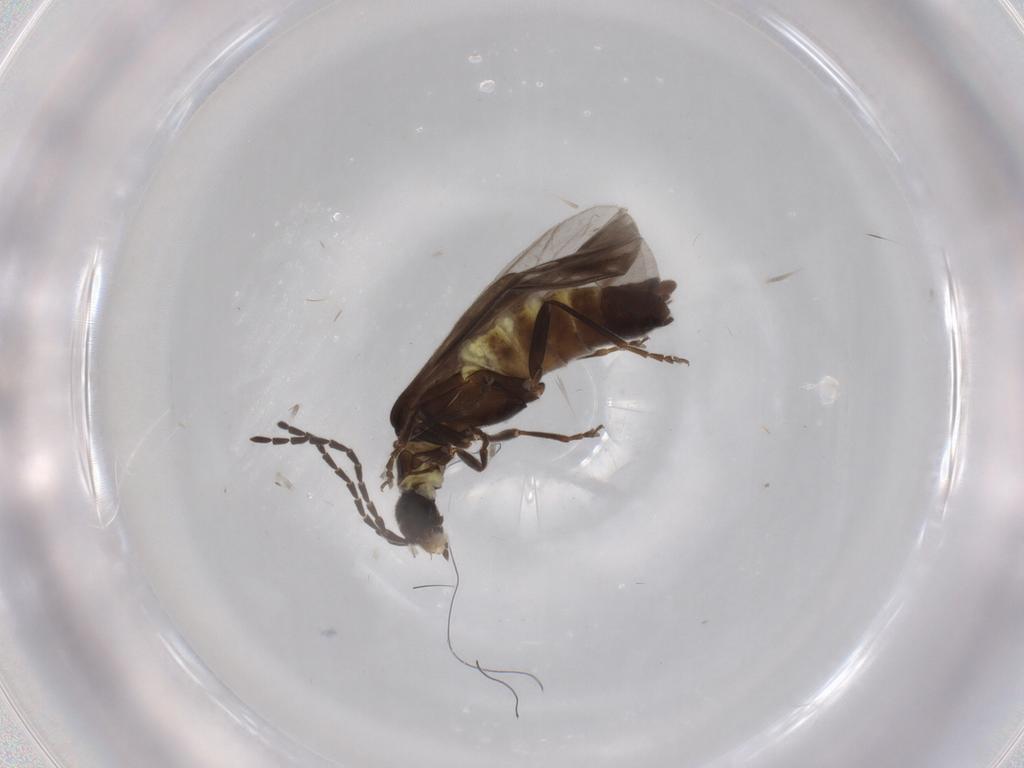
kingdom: Animalia
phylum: Arthropoda
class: Insecta
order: Coleoptera
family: Cantharidae
